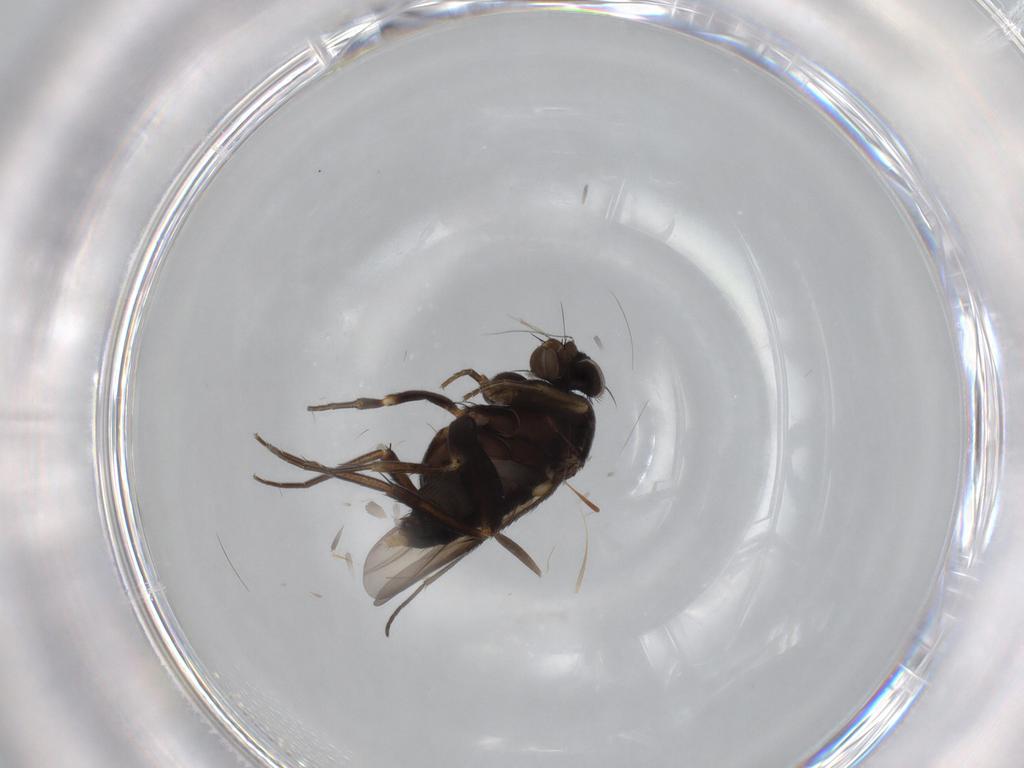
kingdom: Animalia
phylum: Arthropoda
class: Insecta
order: Diptera
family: Phoridae
